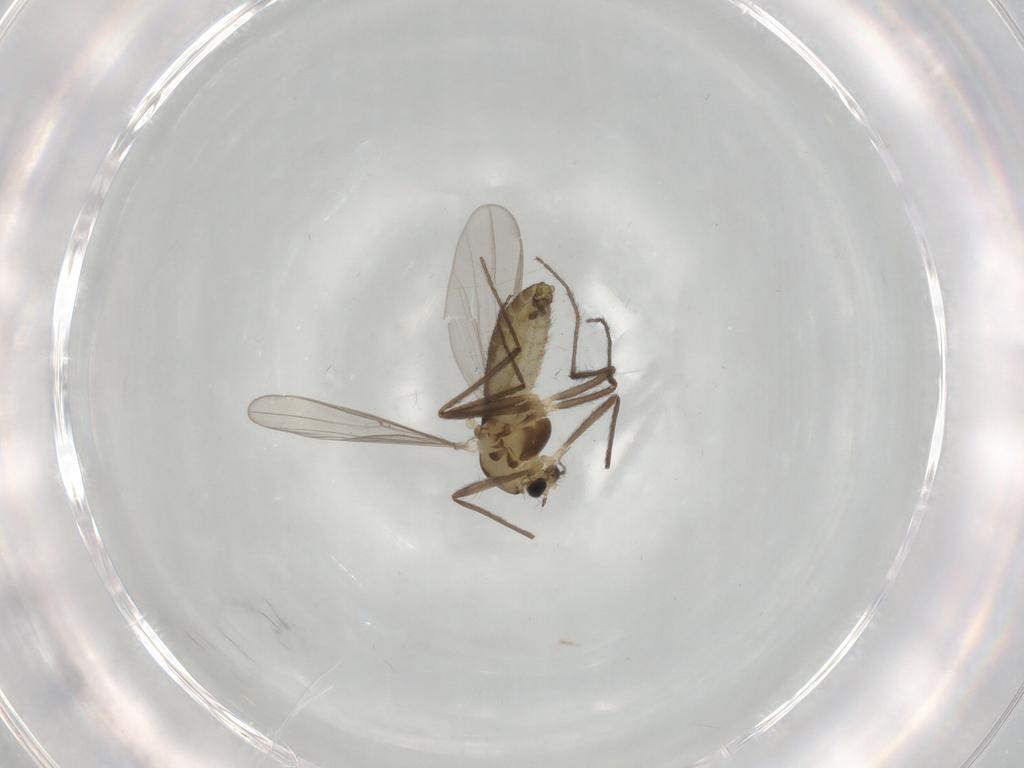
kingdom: Animalia
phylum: Arthropoda
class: Insecta
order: Diptera
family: Chironomidae
